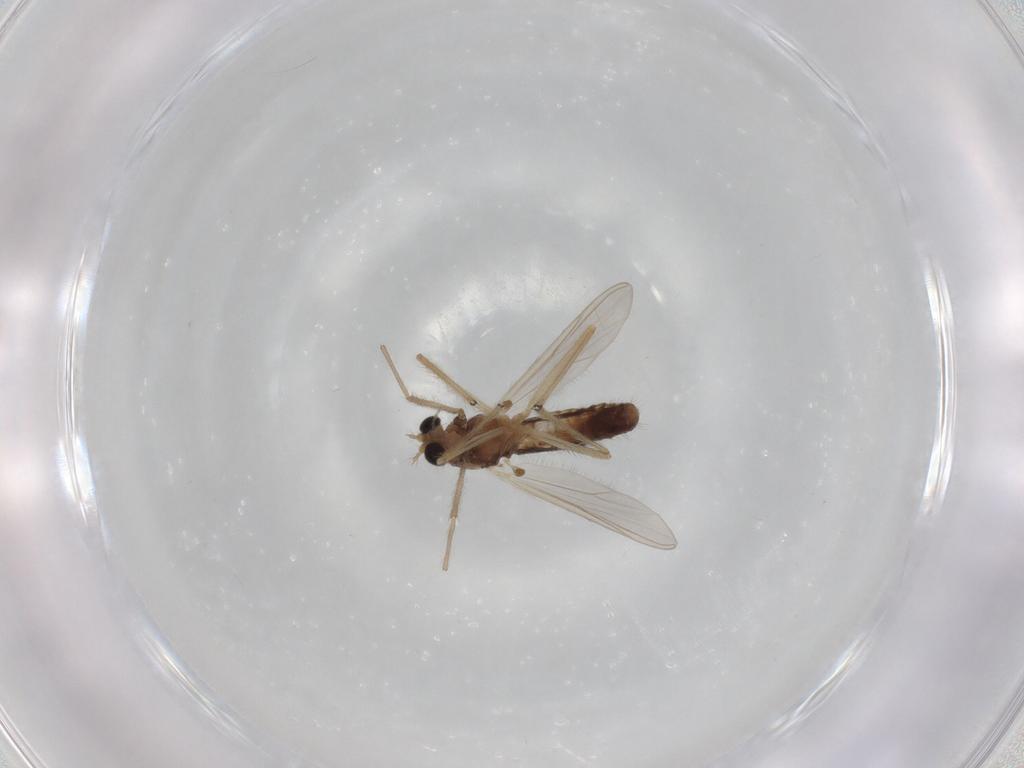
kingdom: Animalia
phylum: Arthropoda
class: Insecta
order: Diptera
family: Chironomidae
